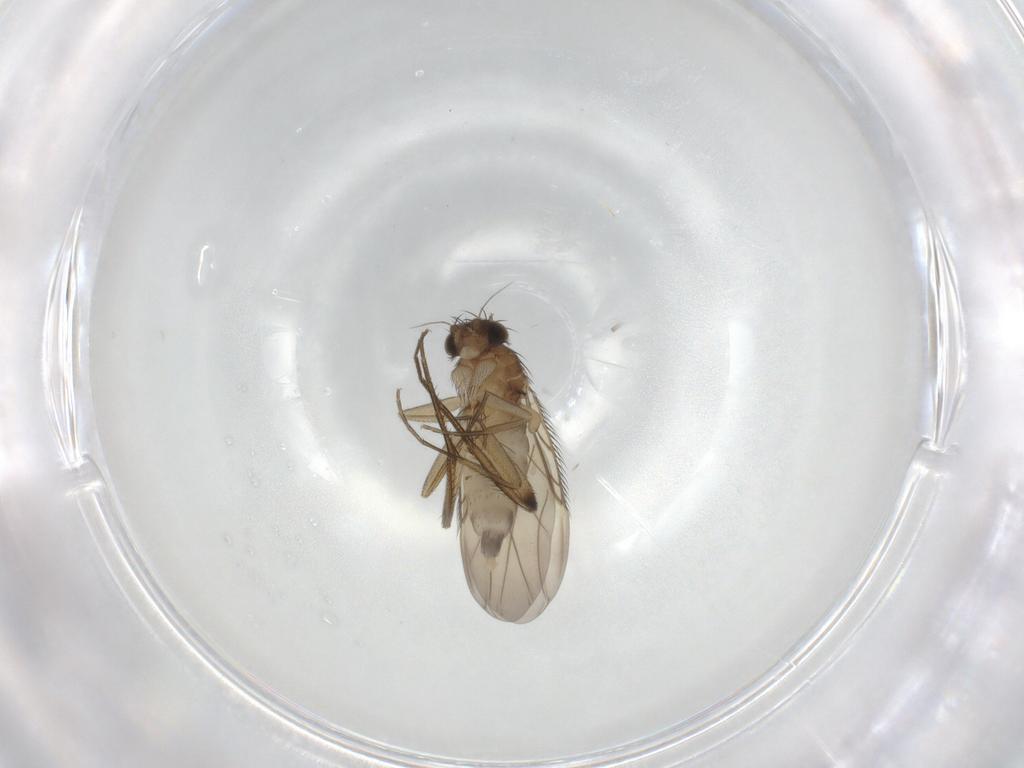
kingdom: Animalia
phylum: Arthropoda
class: Insecta
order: Diptera
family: Phoridae
